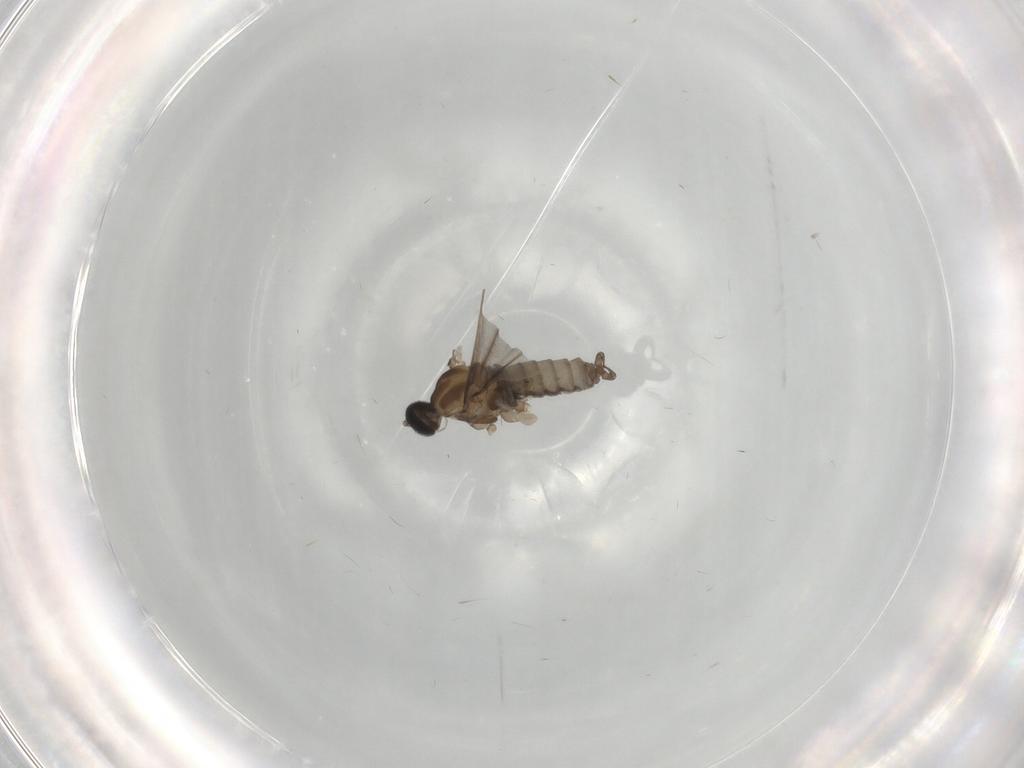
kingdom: Animalia
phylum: Arthropoda
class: Insecta
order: Diptera
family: Cecidomyiidae
